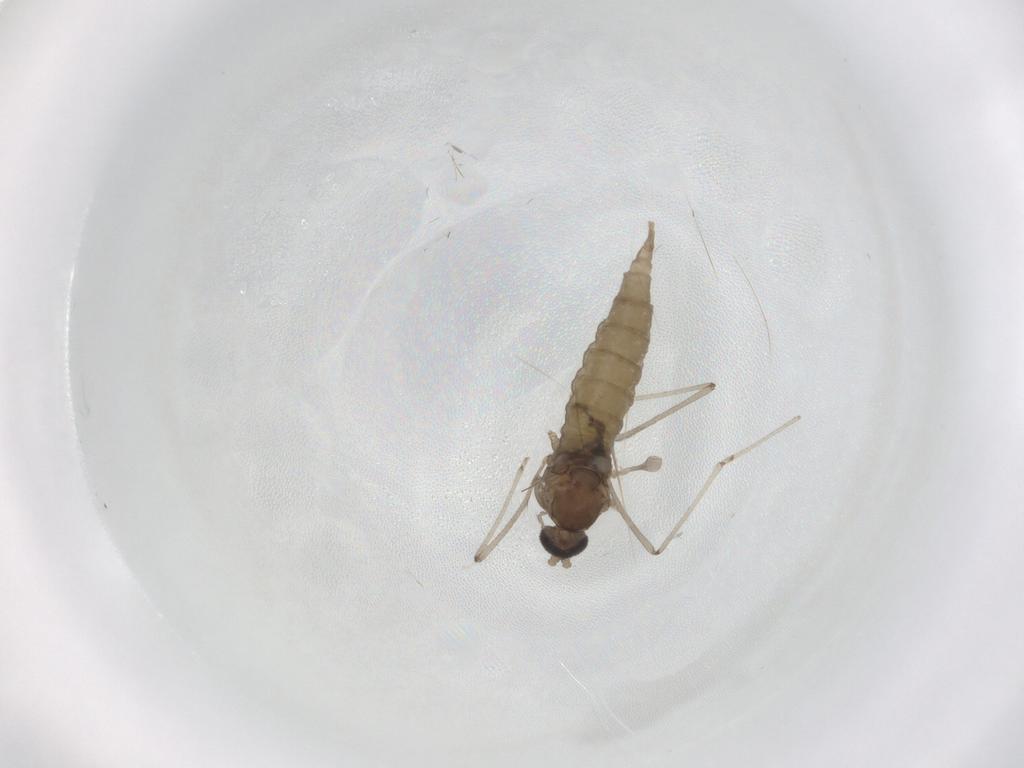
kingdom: Animalia
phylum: Arthropoda
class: Insecta
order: Diptera
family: Cecidomyiidae
